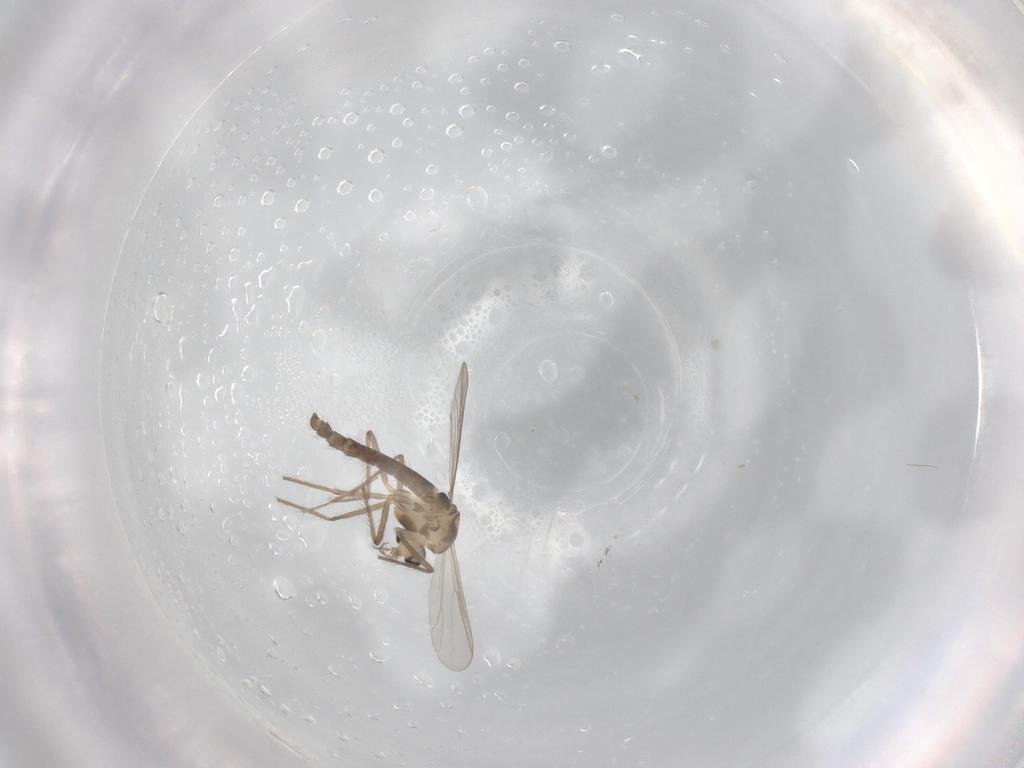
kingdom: Animalia
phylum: Arthropoda
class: Insecta
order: Diptera
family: Chironomidae
